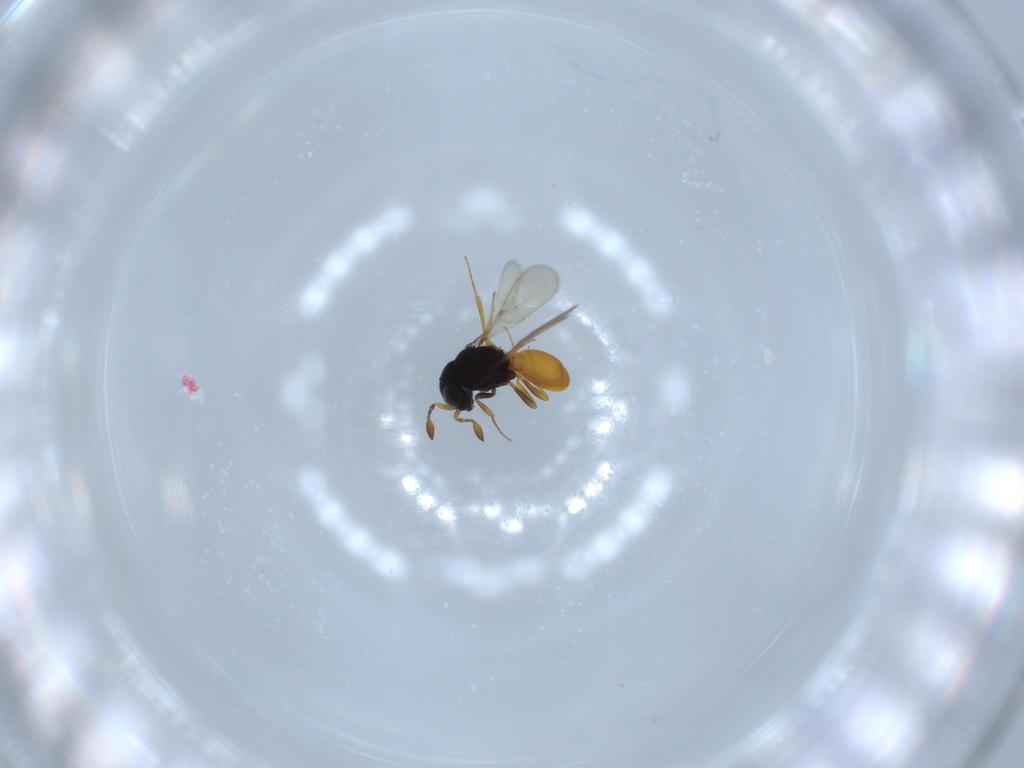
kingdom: Animalia
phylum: Arthropoda
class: Insecta
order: Hymenoptera
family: Scelionidae
